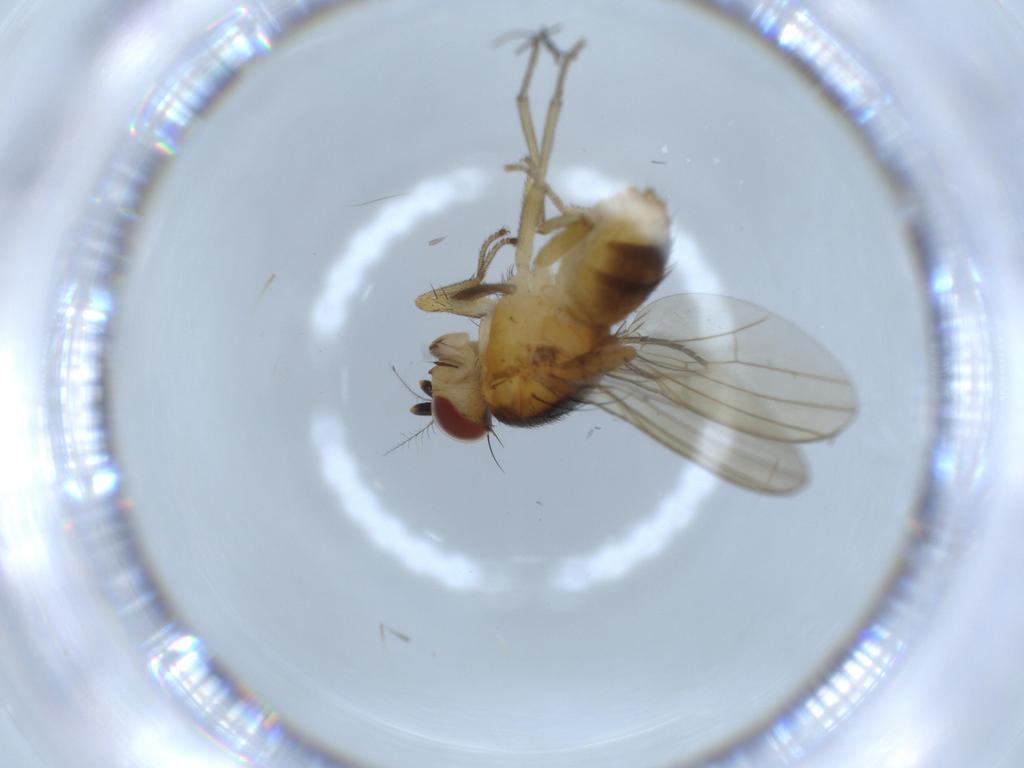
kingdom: Animalia
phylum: Arthropoda
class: Insecta
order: Diptera
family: Lauxaniidae
